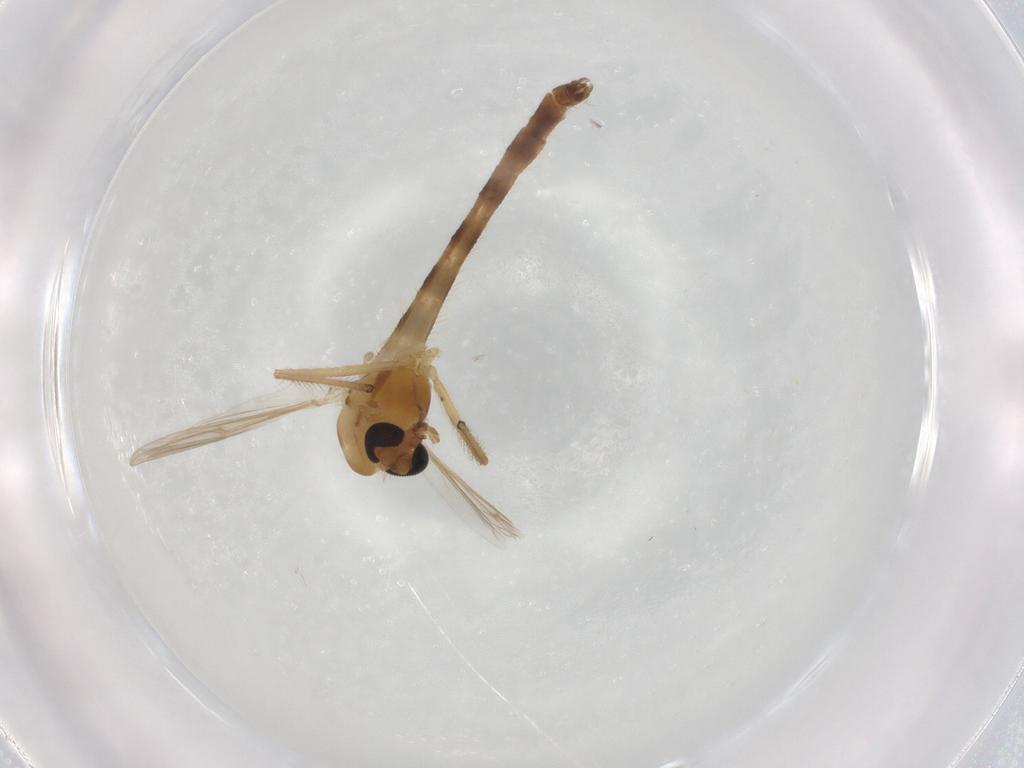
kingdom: Animalia
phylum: Arthropoda
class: Insecta
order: Diptera
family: Chironomidae
